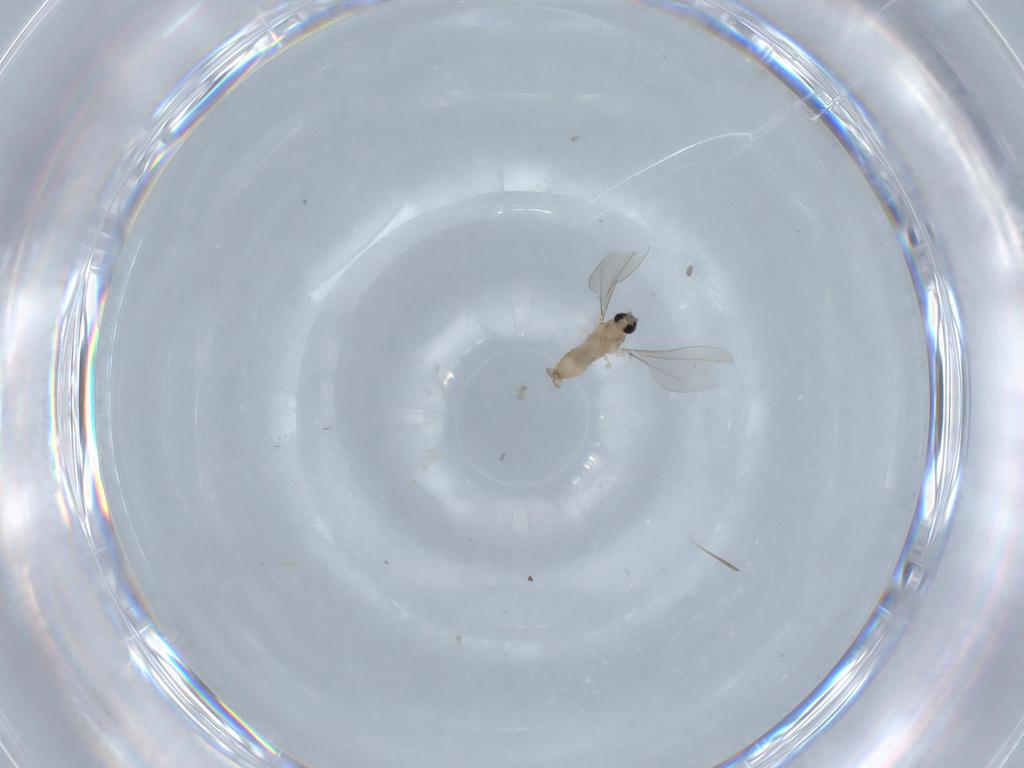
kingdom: Animalia
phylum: Arthropoda
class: Insecta
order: Diptera
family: Cecidomyiidae
